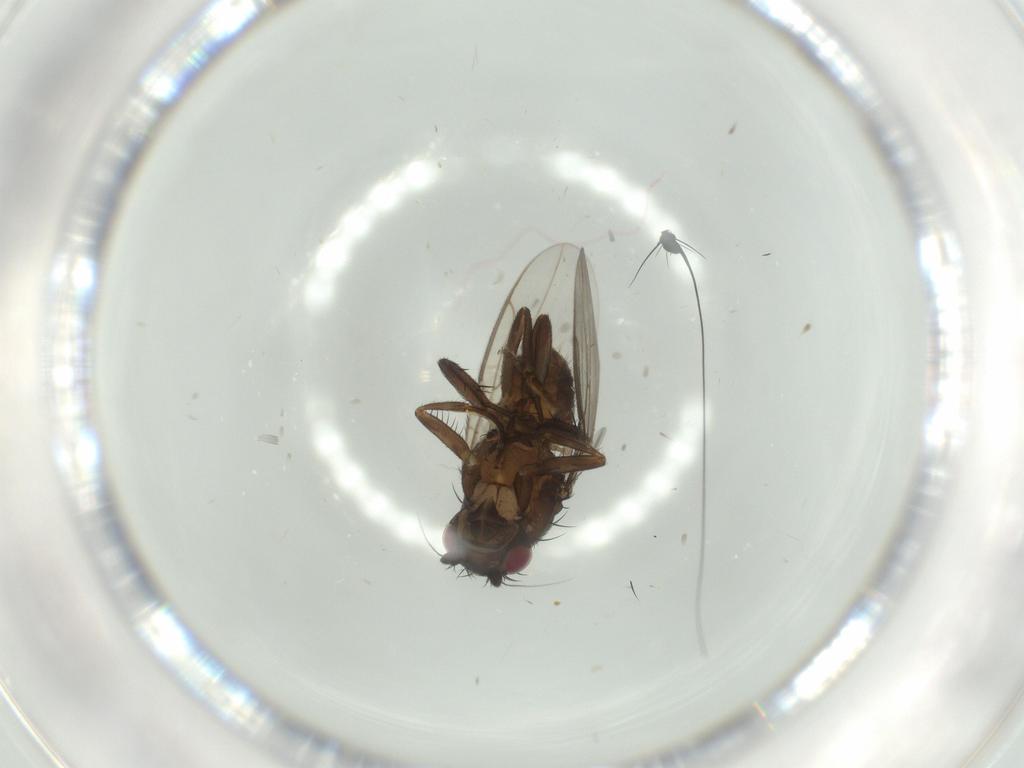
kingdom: Animalia
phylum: Arthropoda
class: Insecta
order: Diptera
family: Dolichopodidae
